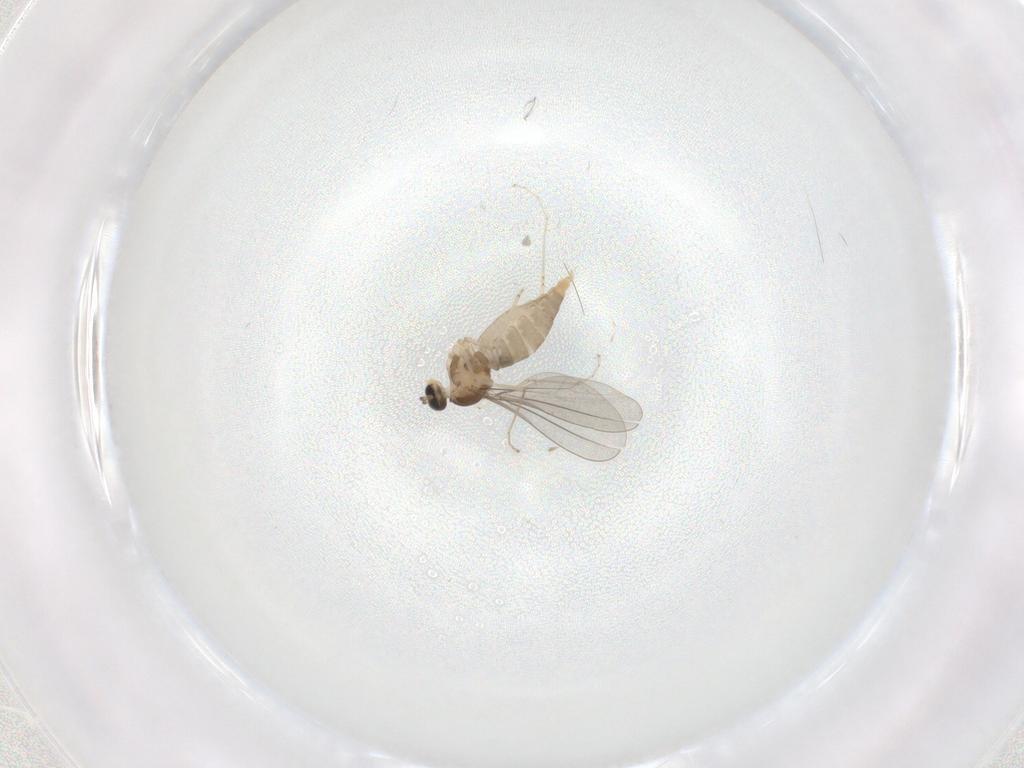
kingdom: Animalia
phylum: Arthropoda
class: Insecta
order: Diptera
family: Cecidomyiidae
